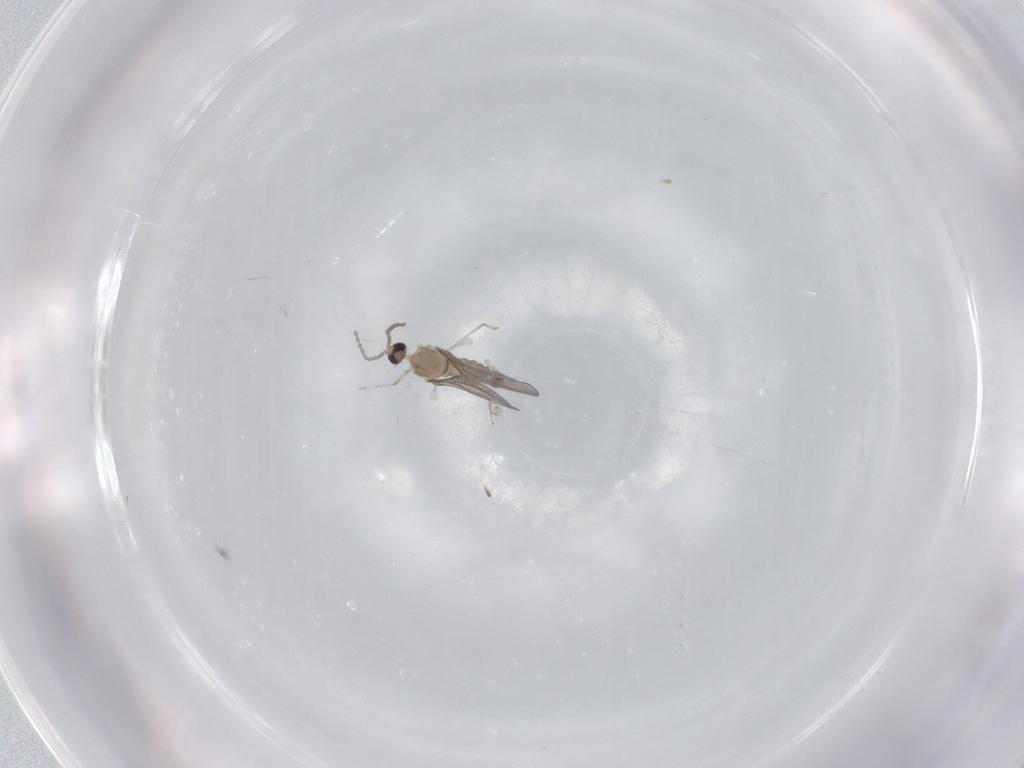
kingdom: Animalia
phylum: Arthropoda
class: Insecta
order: Diptera
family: Cecidomyiidae
